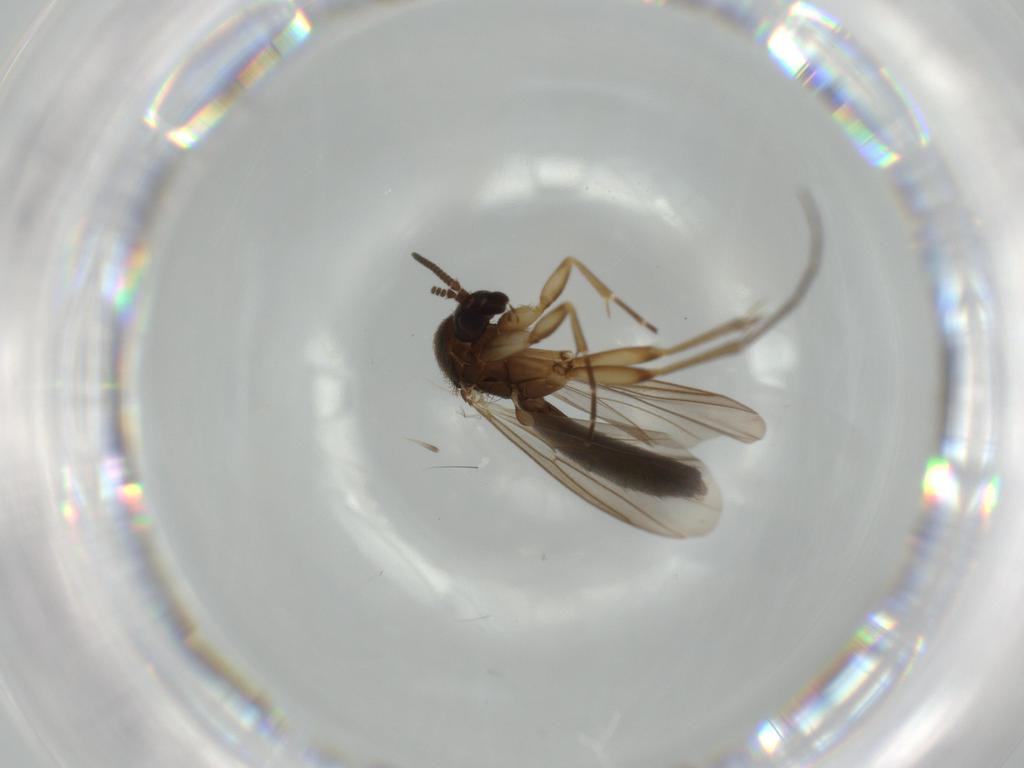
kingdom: Animalia
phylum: Arthropoda
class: Insecta
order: Diptera
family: Mycetophilidae
